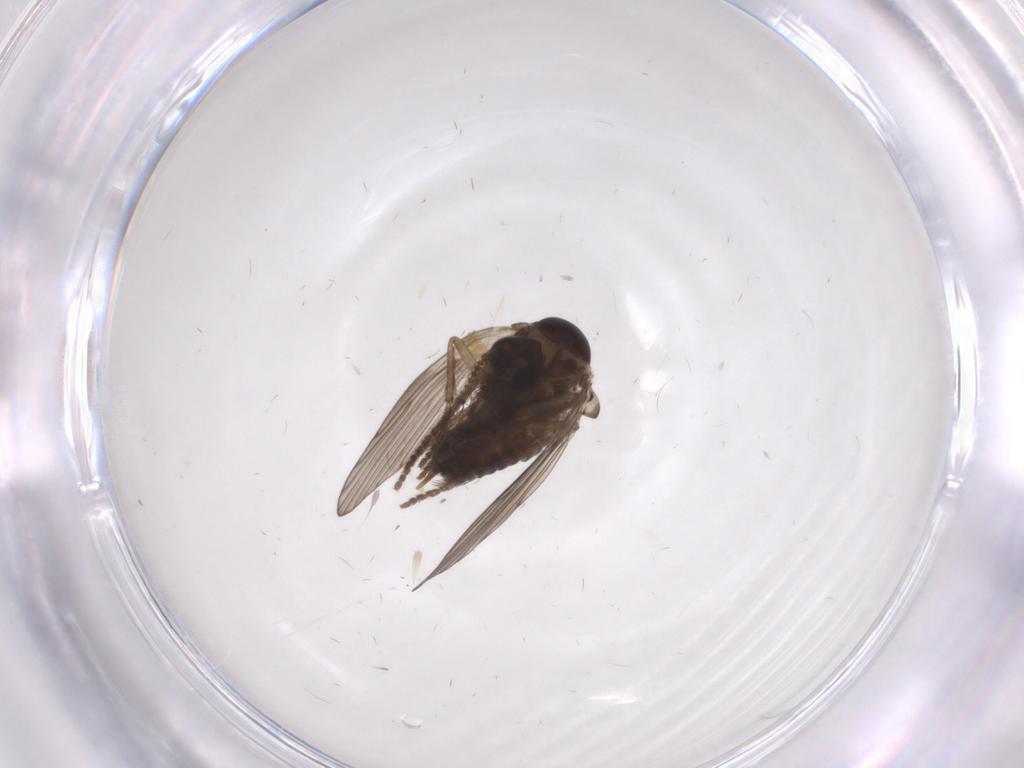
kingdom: Animalia
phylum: Arthropoda
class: Insecta
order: Diptera
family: Psychodidae
